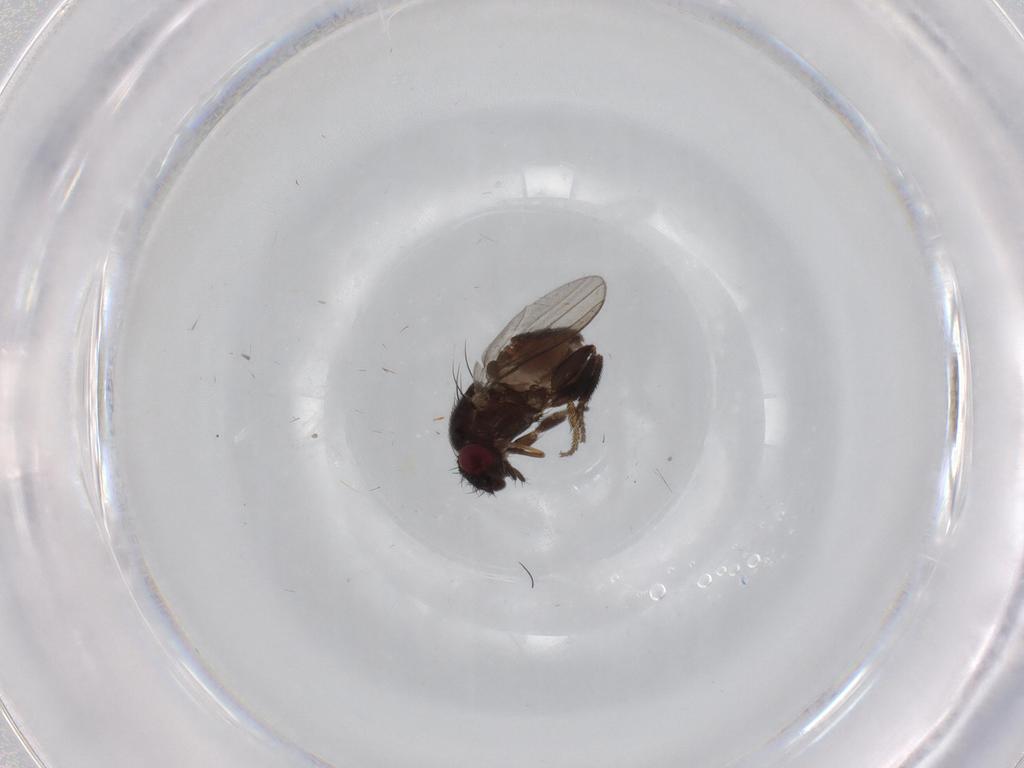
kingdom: Animalia
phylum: Arthropoda
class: Insecta
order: Diptera
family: Milichiidae
